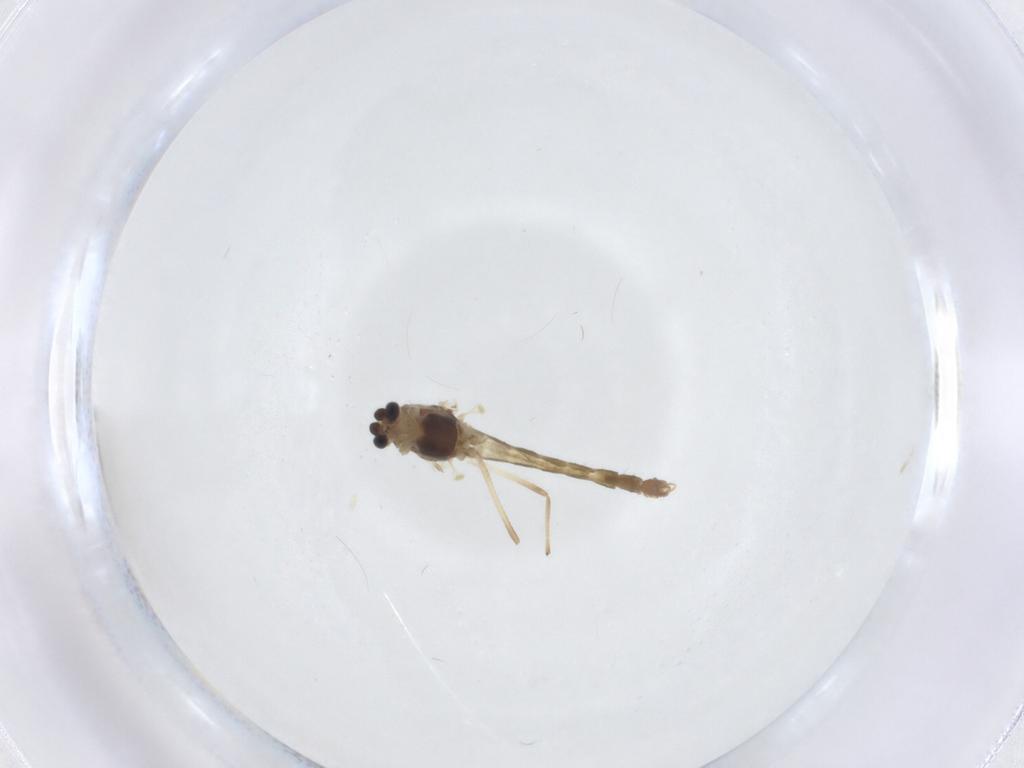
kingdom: Animalia
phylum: Arthropoda
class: Insecta
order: Diptera
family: Chironomidae
